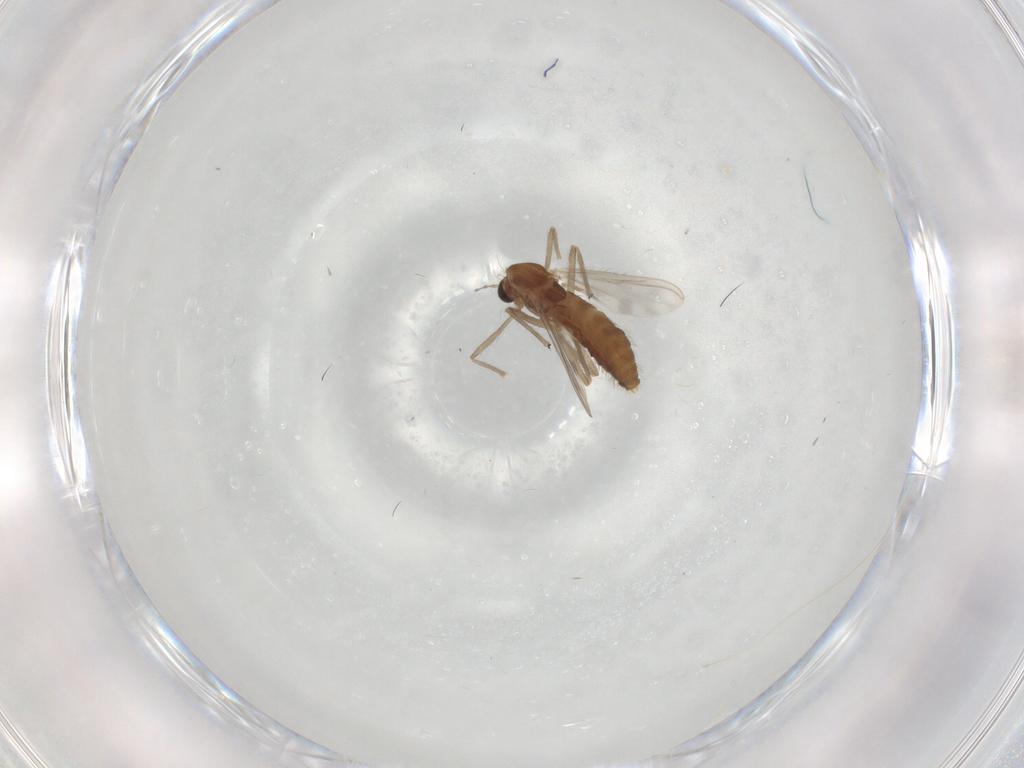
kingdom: Animalia
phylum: Arthropoda
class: Insecta
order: Diptera
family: Chironomidae
